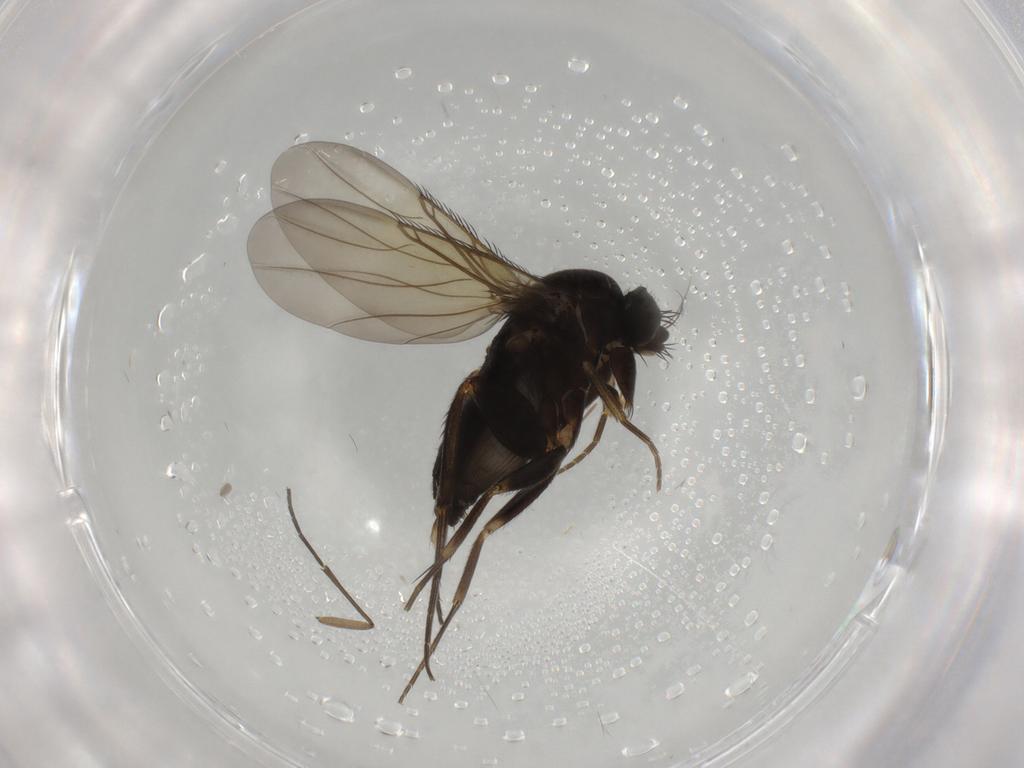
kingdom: Animalia
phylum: Arthropoda
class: Insecta
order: Diptera
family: Phoridae
